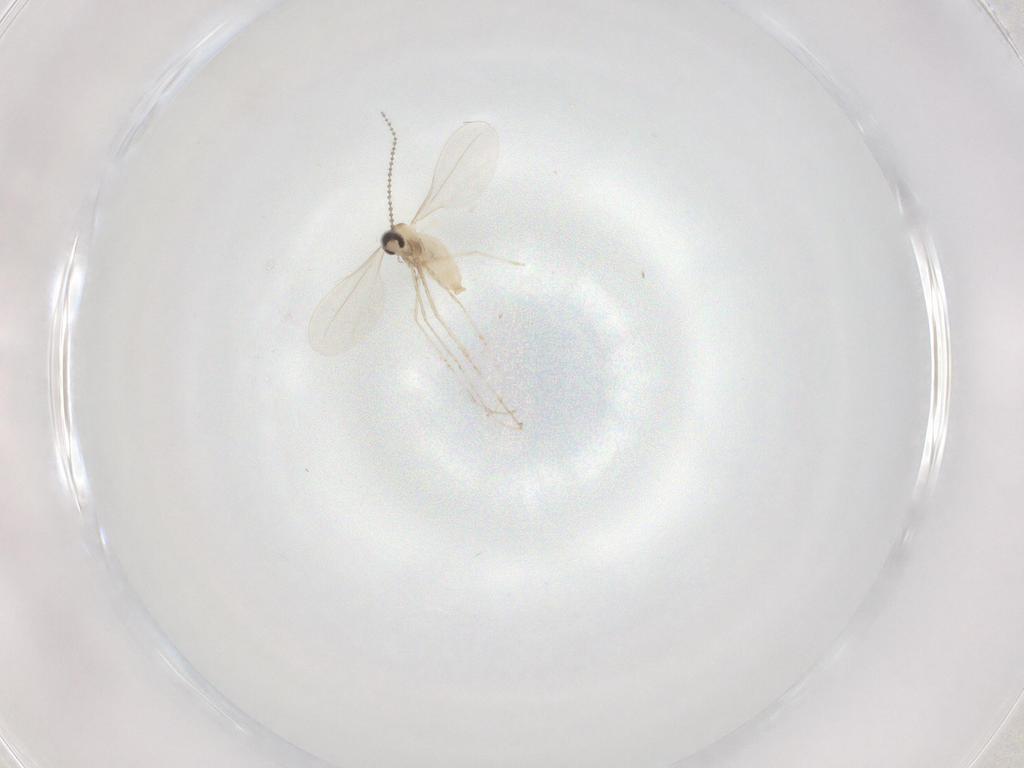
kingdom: Animalia
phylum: Arthropoda
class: Insecta
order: Diptera
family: Cecidomyiidae
